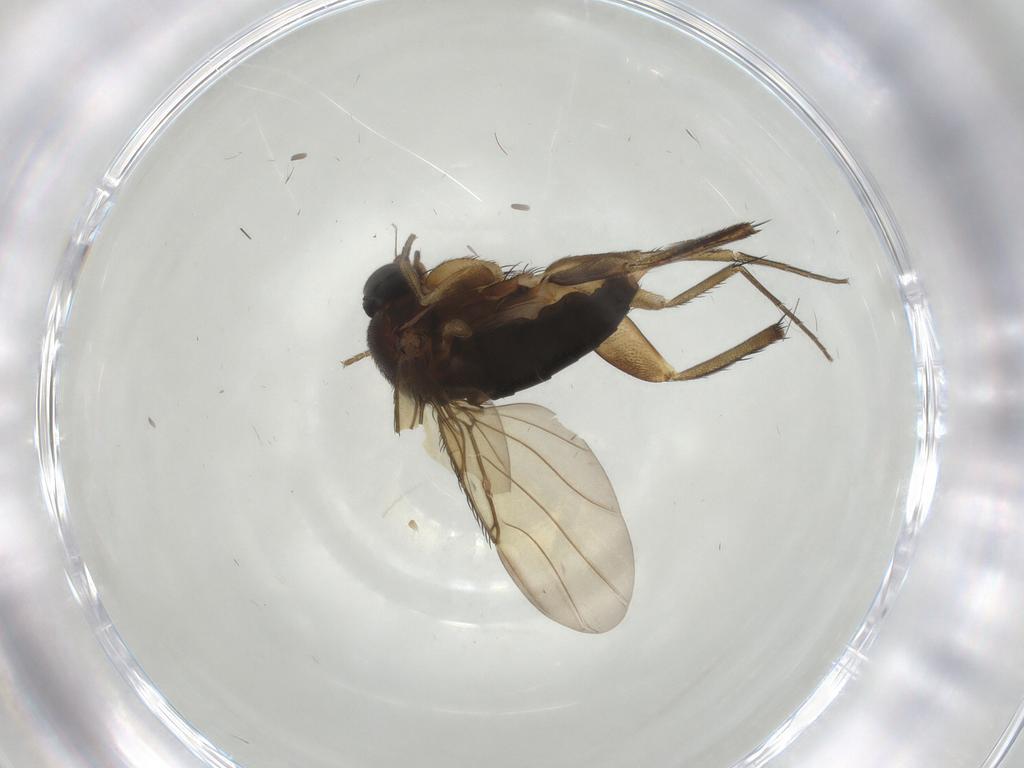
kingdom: Animalia
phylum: Arthropoda
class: Insecta
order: Diptera
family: Phoridae
